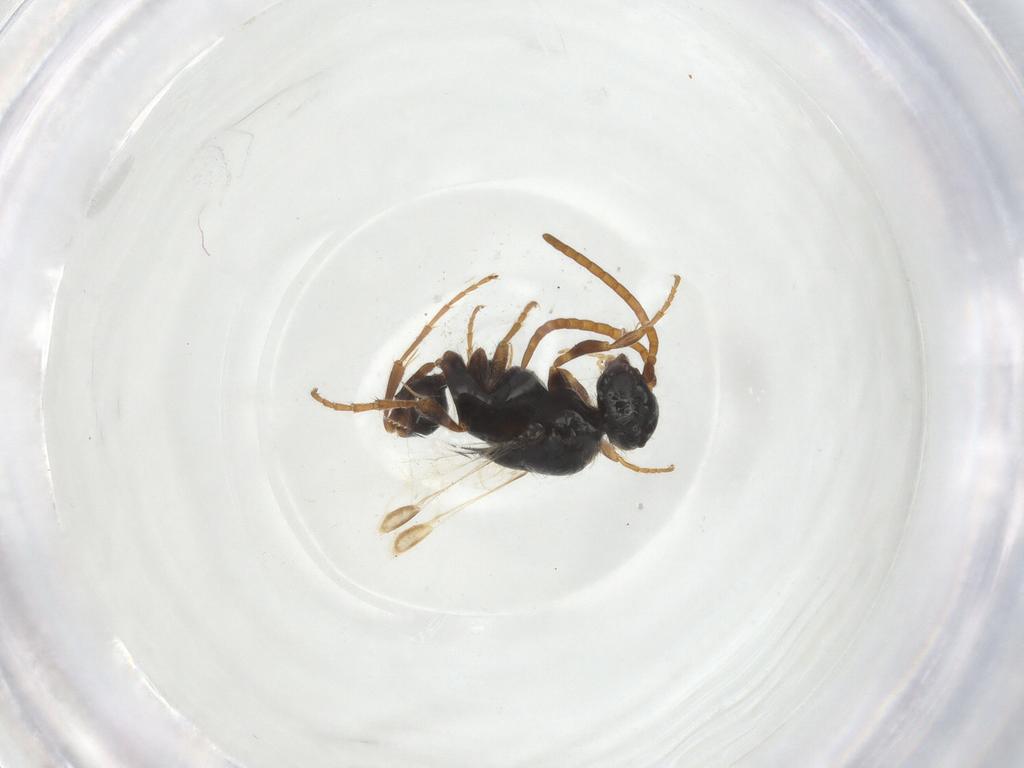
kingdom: Animalia
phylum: Arthropoda
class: Insecta
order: Hymenoptera
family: Tiphiidae
